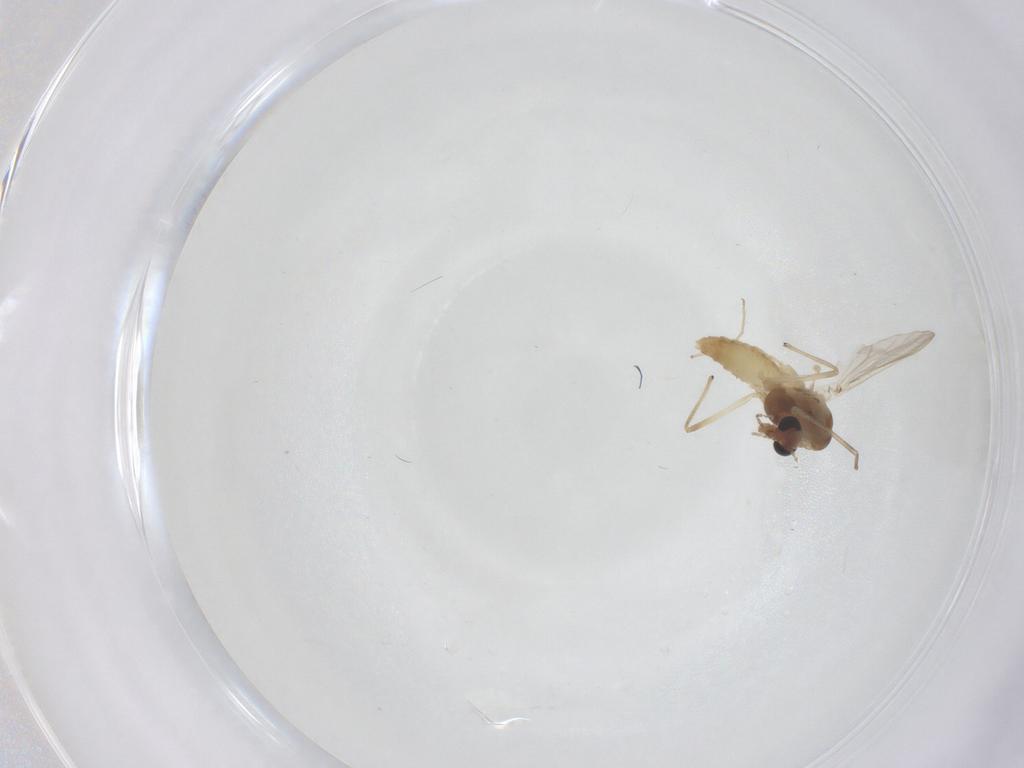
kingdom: Animalia
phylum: Arthropoda
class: Insecta
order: Diptera
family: Chironomidae
